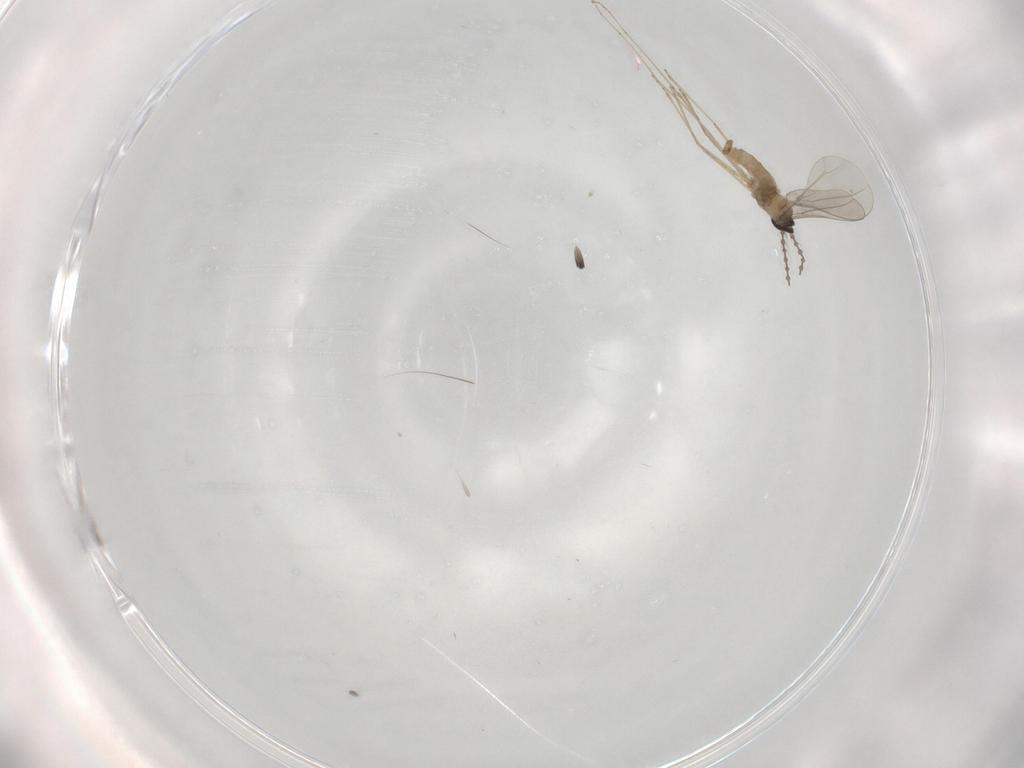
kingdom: Animalia
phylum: Arthropoda
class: Insecta
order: Diptera
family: Cecidomyiidae
